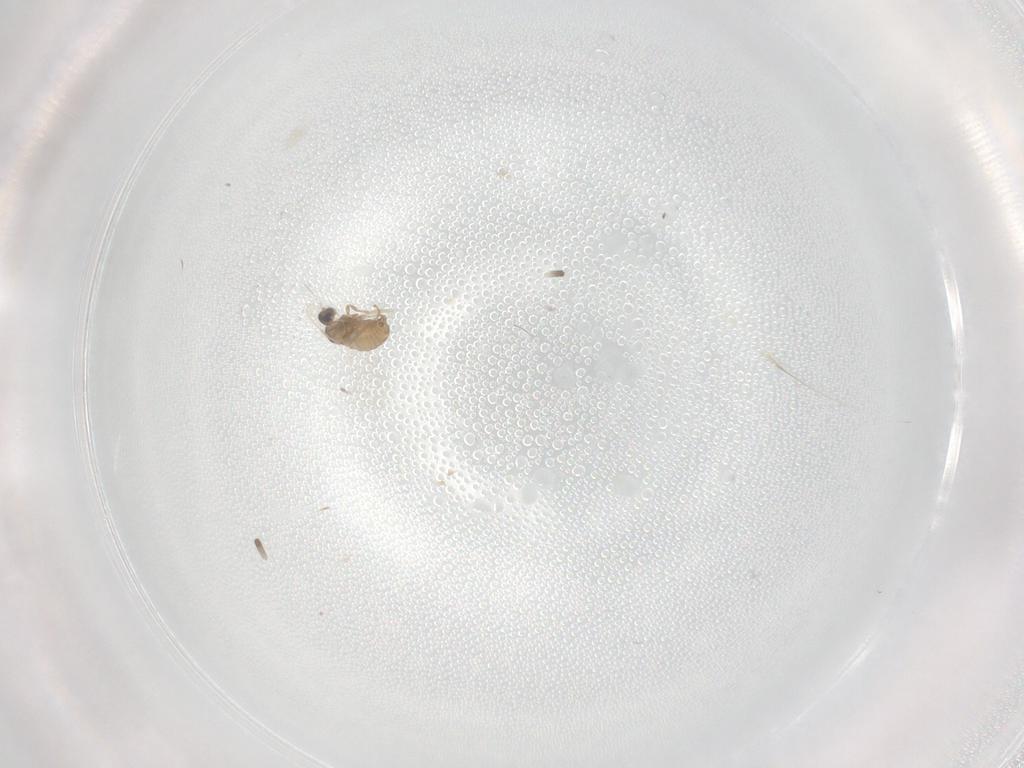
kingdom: Animalia
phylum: Arthropoda
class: Insecta
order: Diptera
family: Cecidomyiidae
